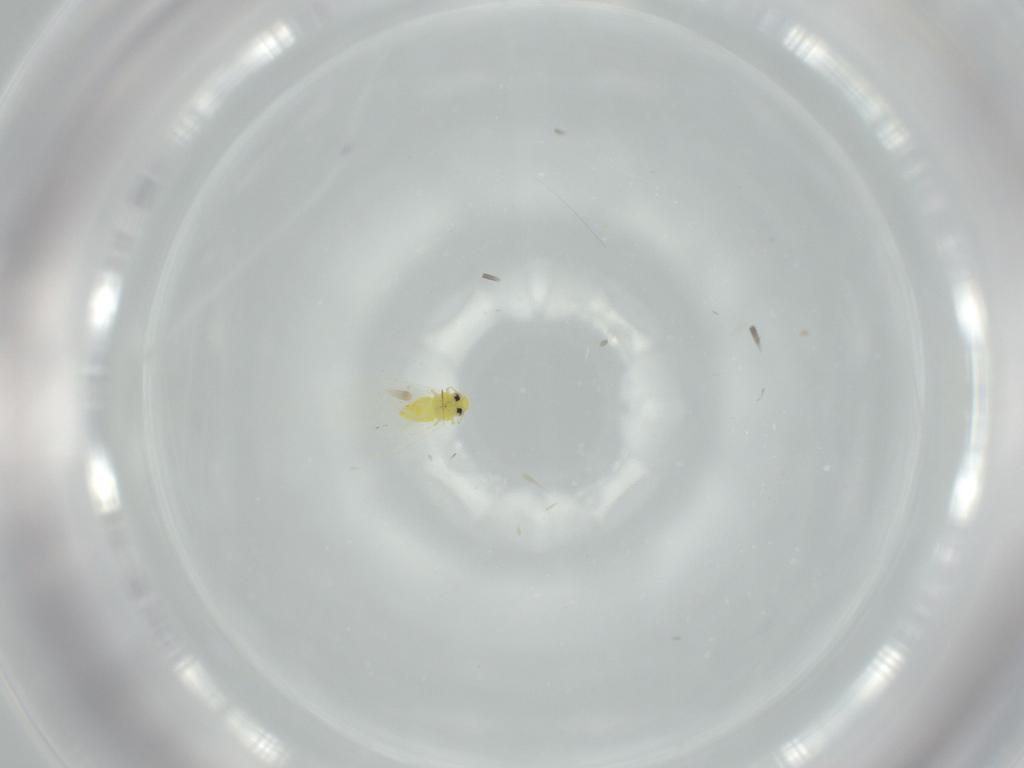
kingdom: Animalia
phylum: Arthropoda
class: Insecta
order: Hemiptera
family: Aleyrodidae
